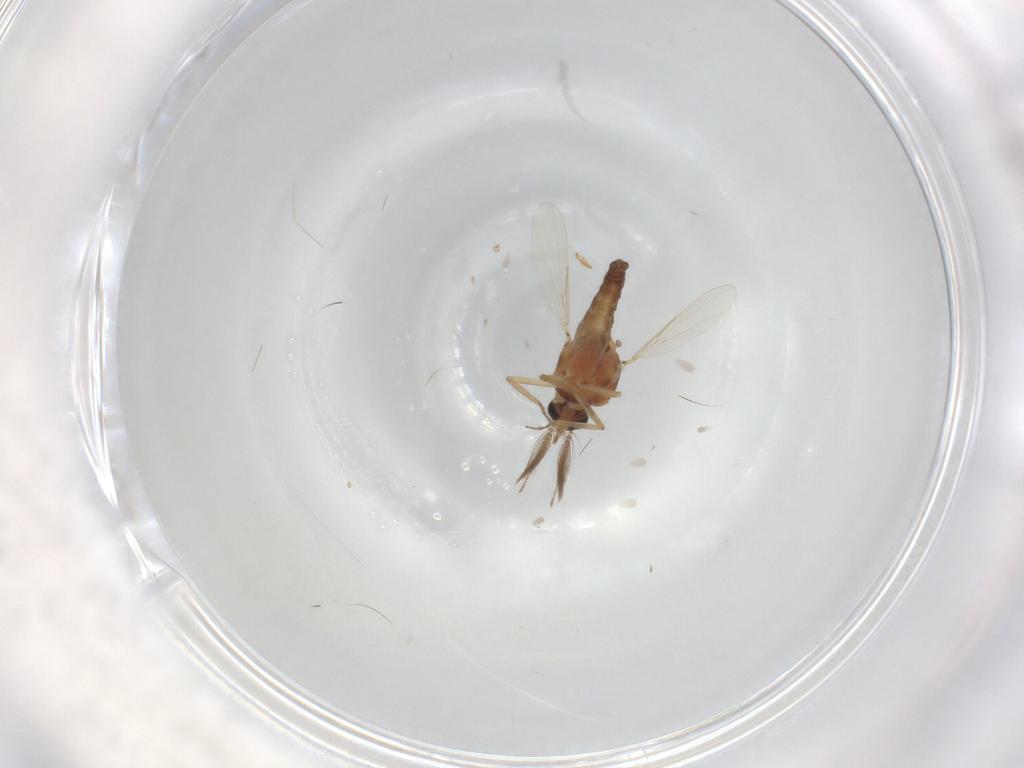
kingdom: Animalia
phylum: Arthropoda
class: Insecta
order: Diptera
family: Ceratopogonidae
